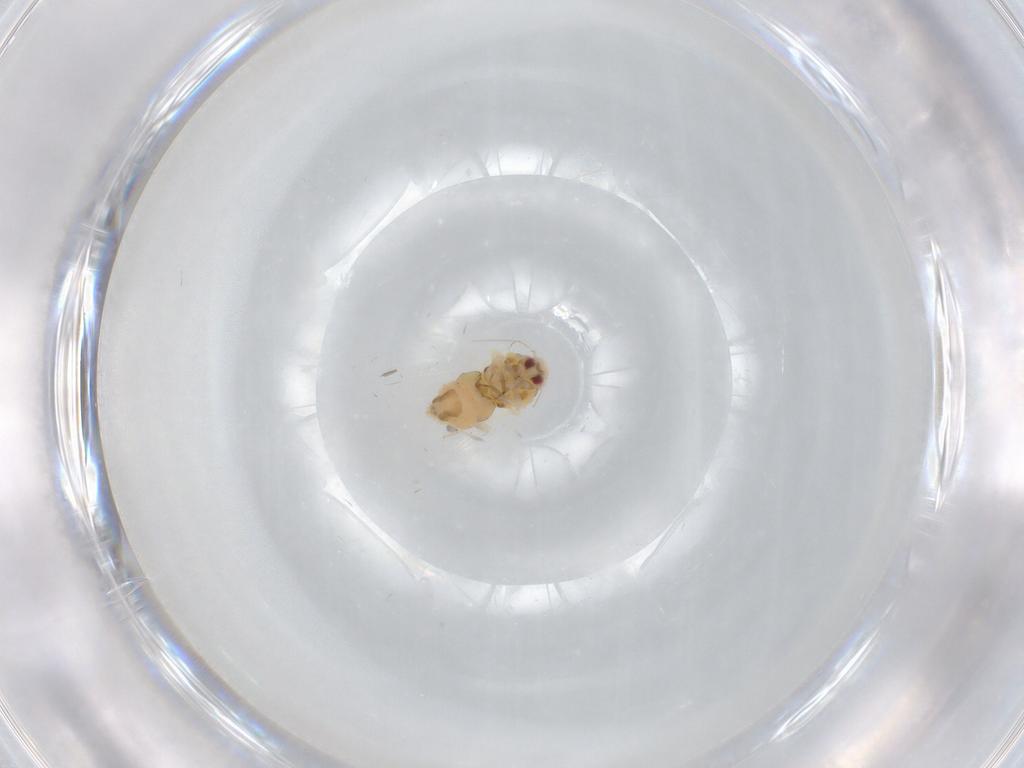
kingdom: Animalia
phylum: Arthropoda
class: Insecta
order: Hemiptera
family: Aleyrodidae
